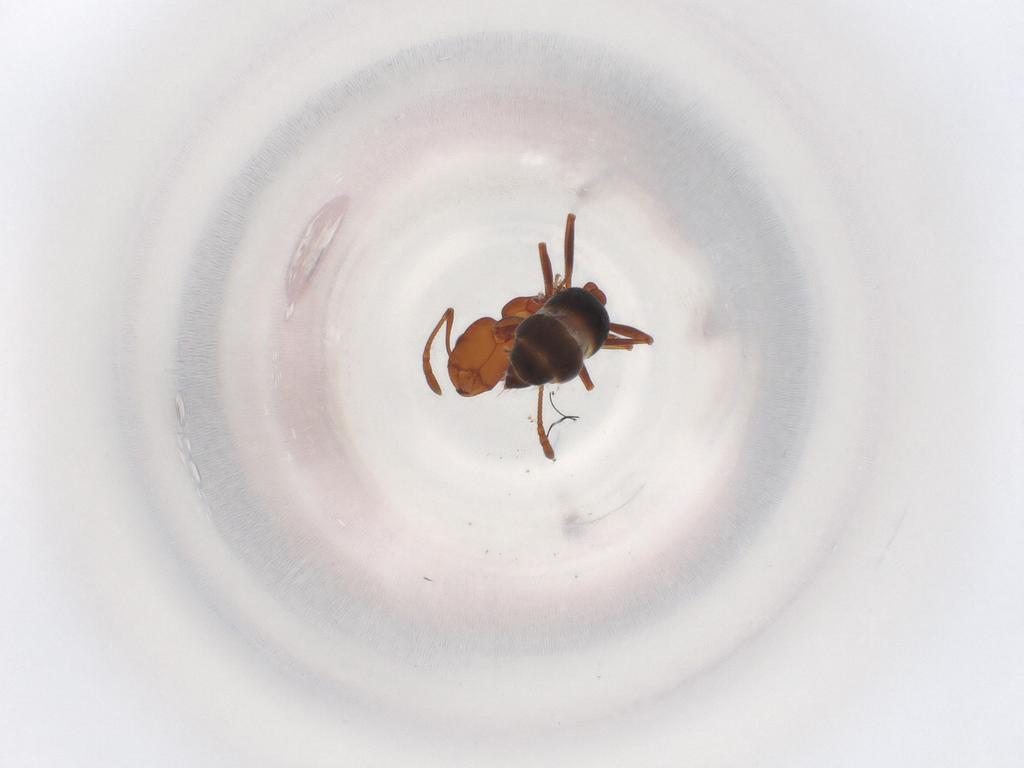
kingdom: Animalia
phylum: Arthropoda
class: Insecta
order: Hymenoptera
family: Formicidae
